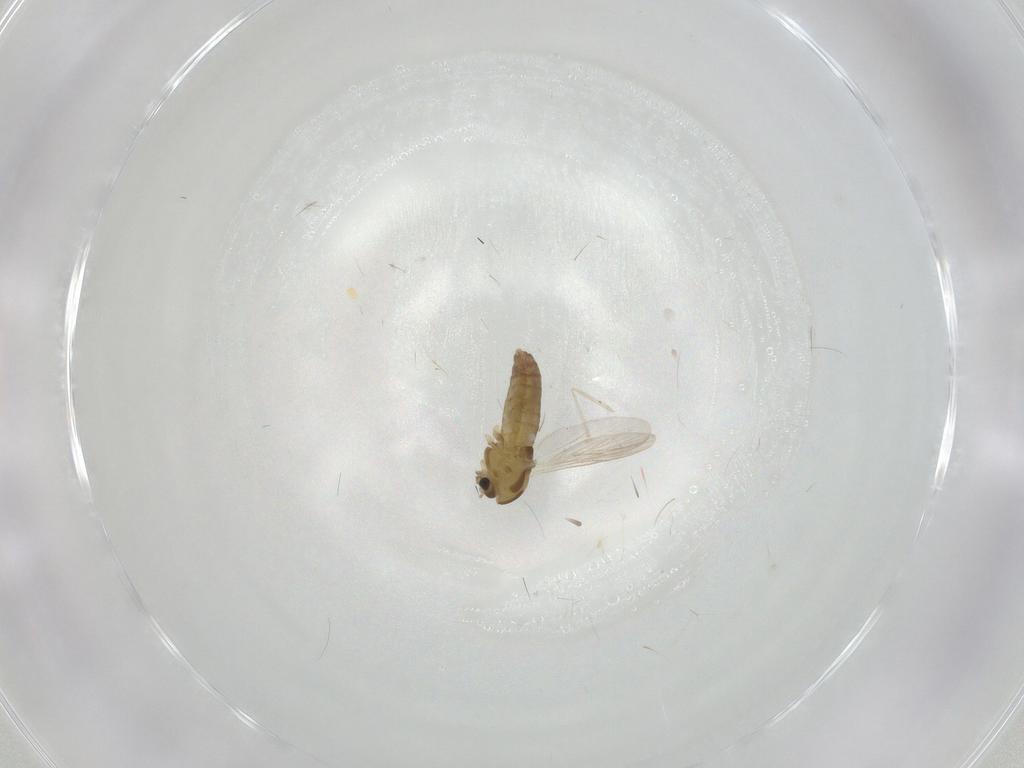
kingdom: Animalia
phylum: Arthropoda
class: Insecta
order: Diptera
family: Chironomidae
